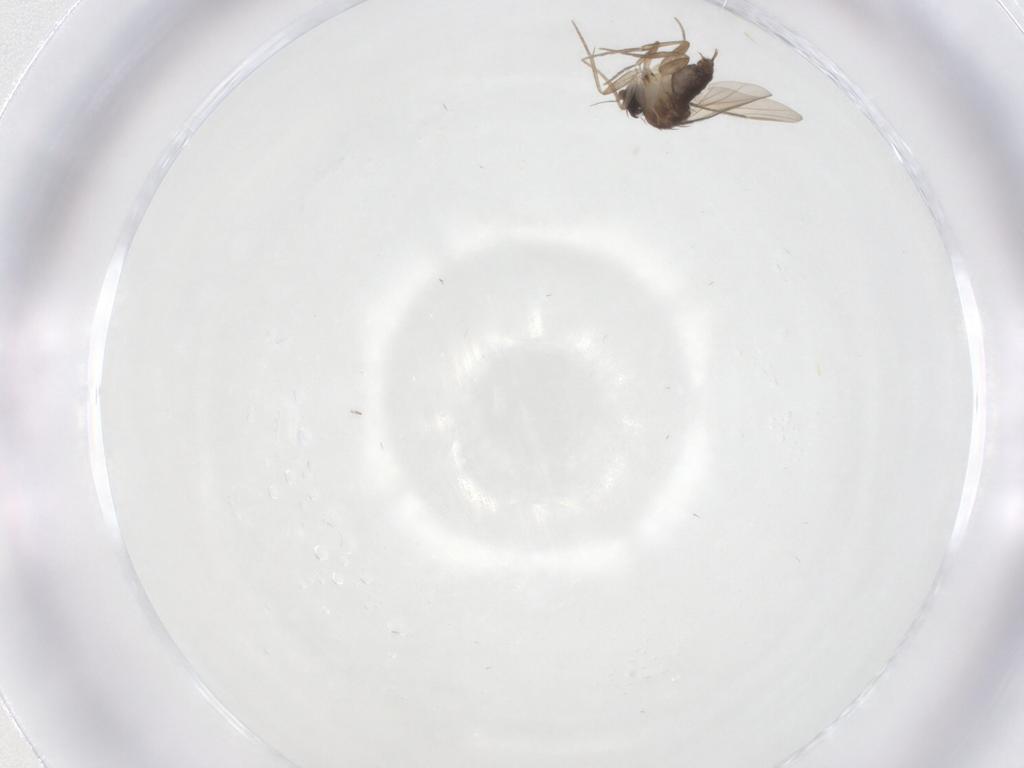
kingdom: Animalia
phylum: Arthropoda
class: Insecta
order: Diptera
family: Phoridae
